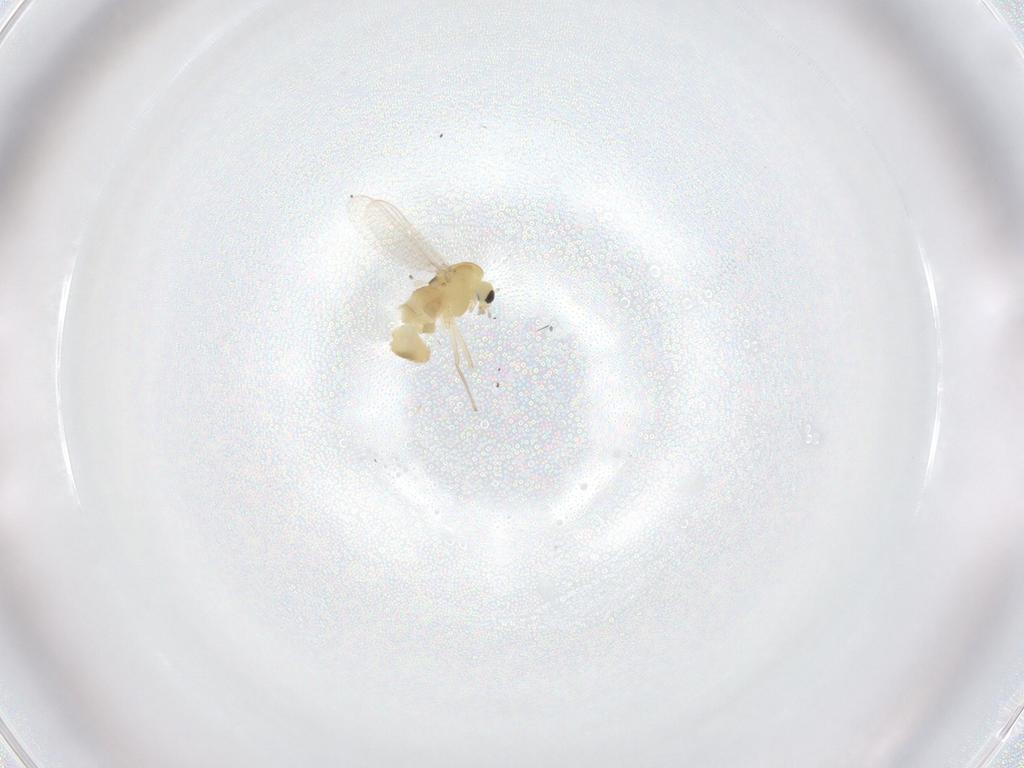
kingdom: Animalia
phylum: Arthropoda
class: Insecta
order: Diptera
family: Chironomidae
